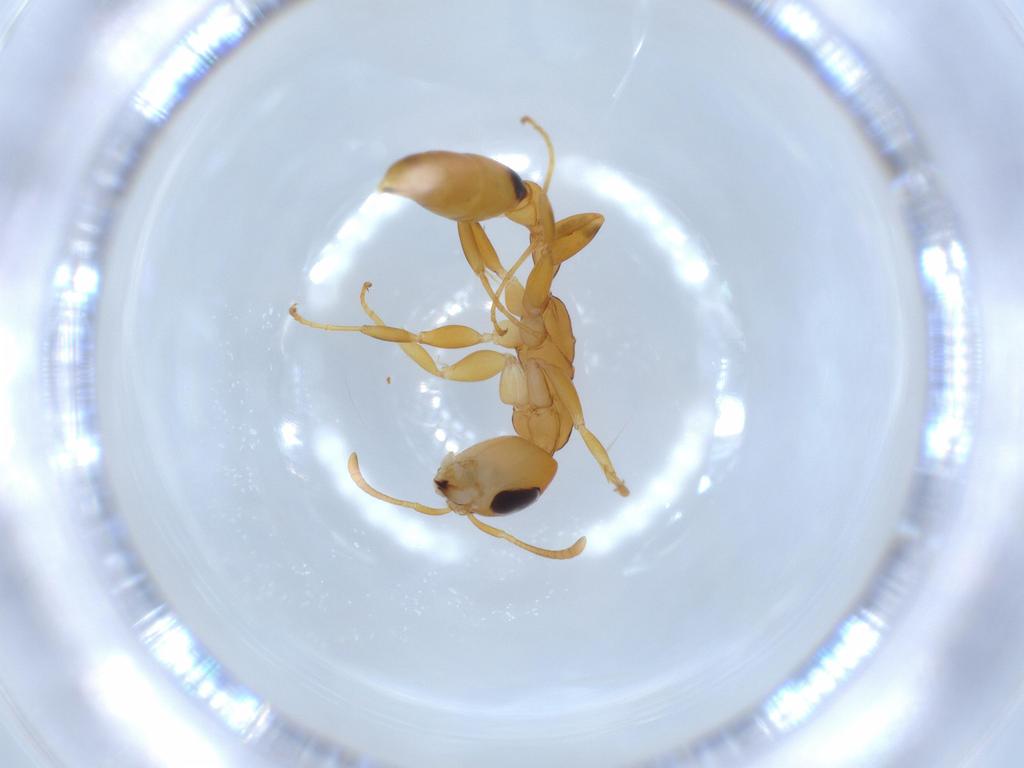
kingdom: Animalia
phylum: Arthropoda
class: Insecta
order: Hymenoptera
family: Formicidae
